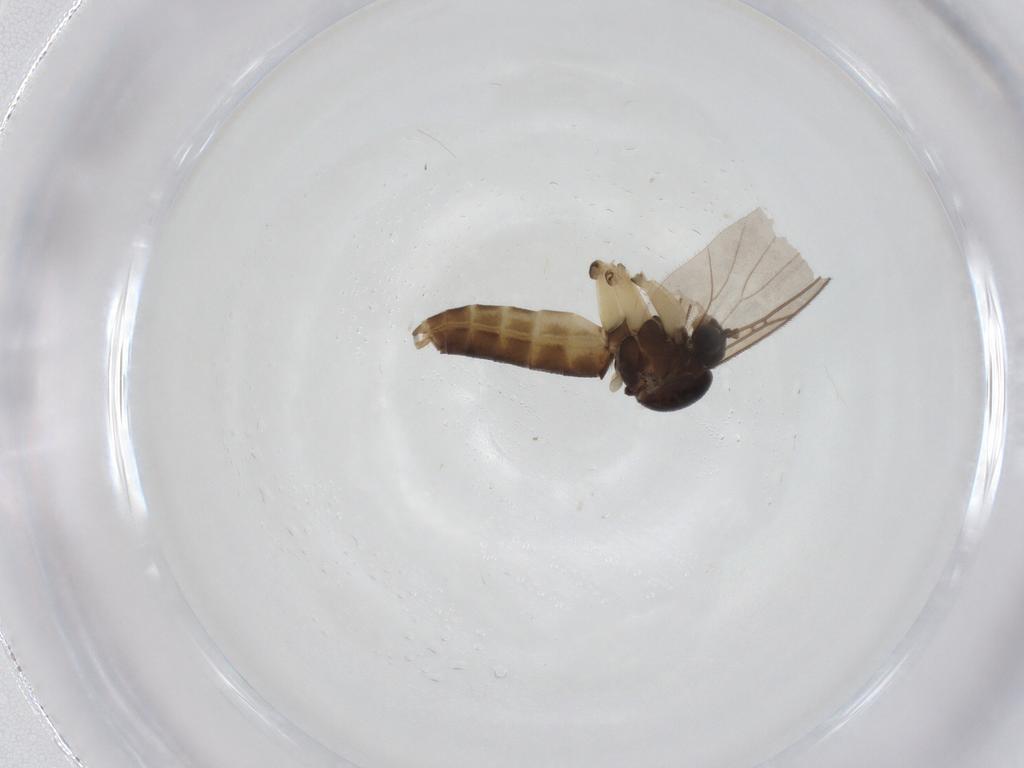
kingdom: Animalia
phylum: Arthropoda
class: Insecta
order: Diptera
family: Mycetophilidae
